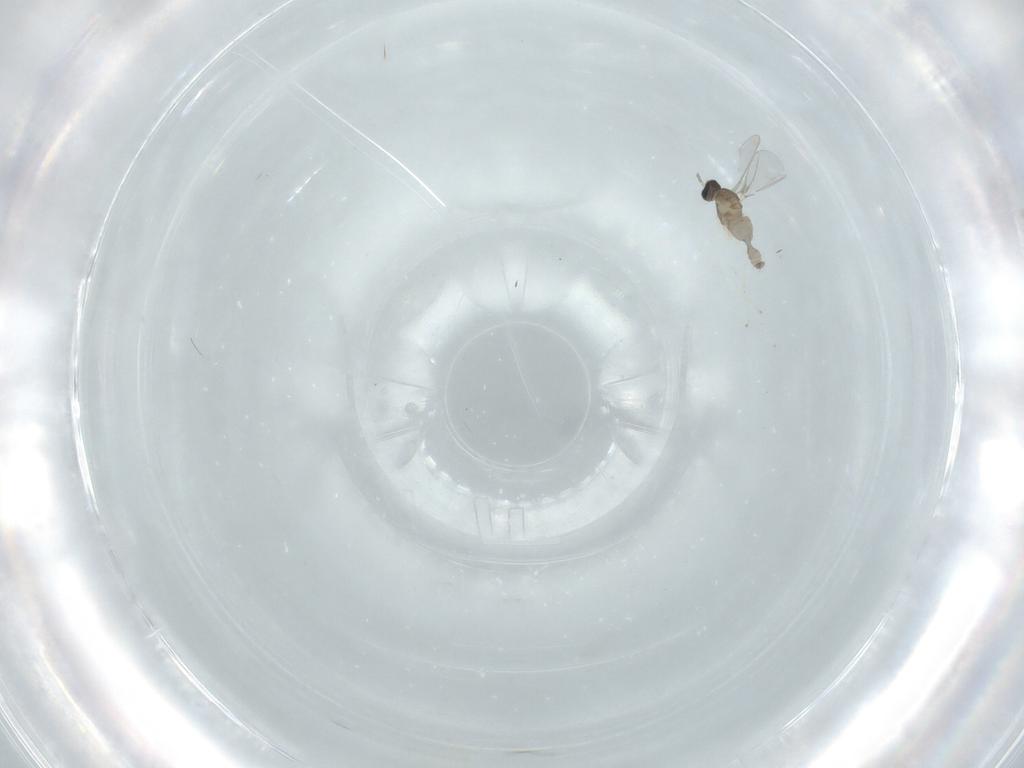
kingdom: Animalia
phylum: Arthropoda
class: Insecta
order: Diptera
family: Cecidomyiidae
